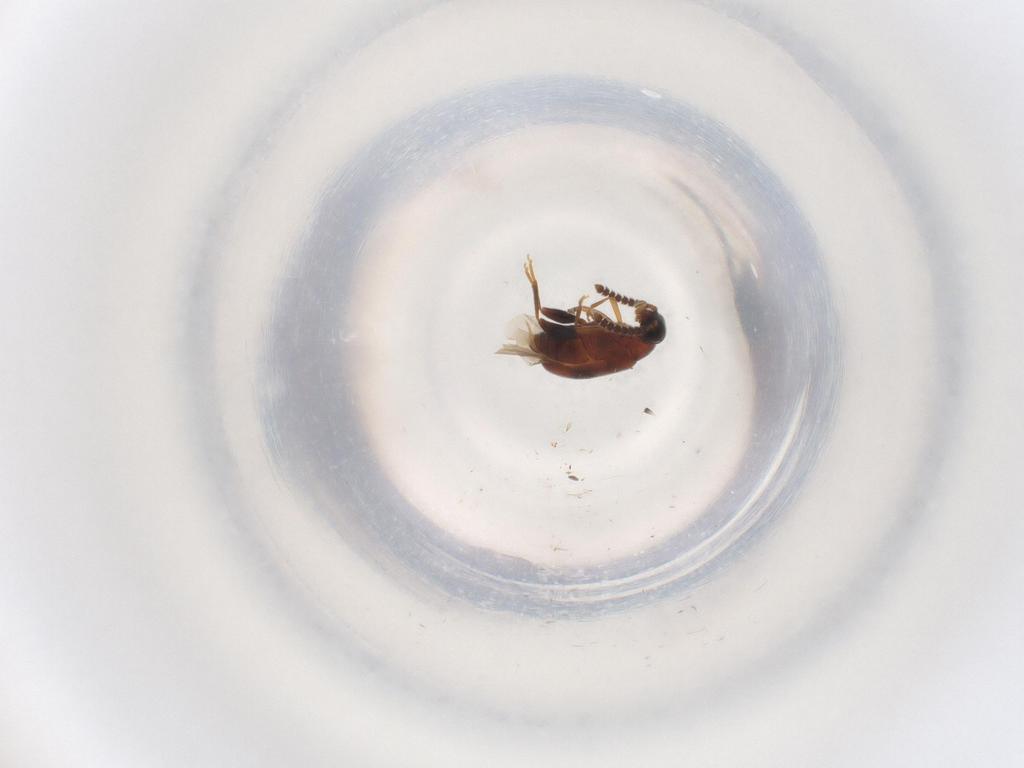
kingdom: Animalia
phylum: Arthropoda
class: Insecta
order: Coleoptera
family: Aderidae
